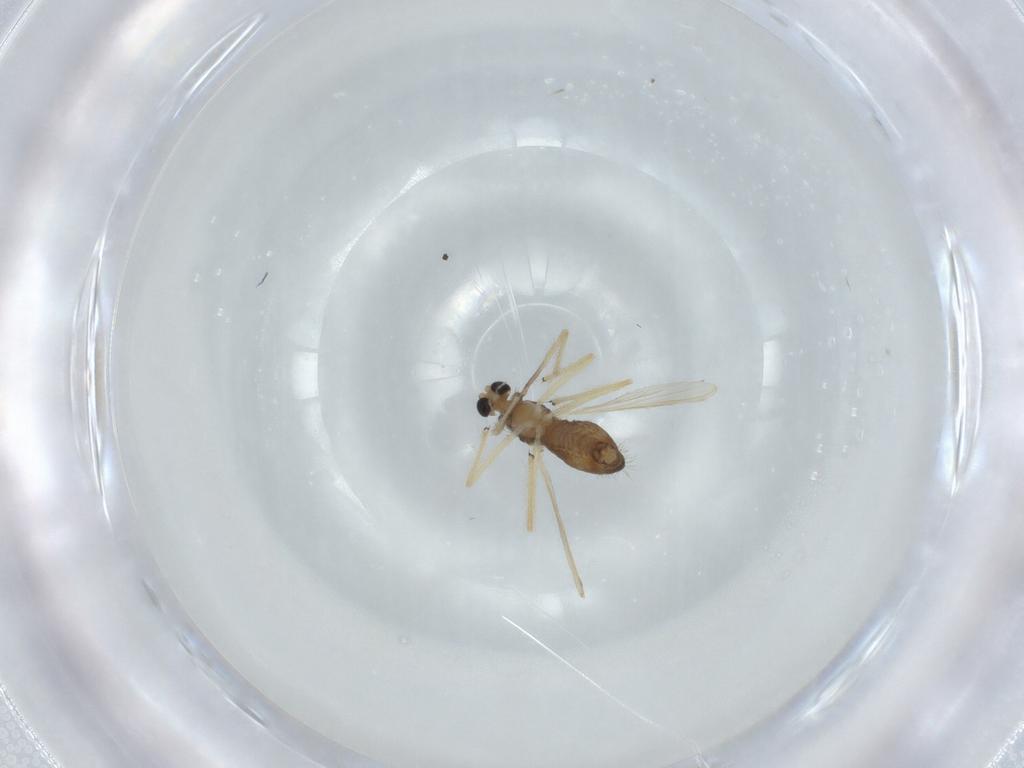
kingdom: Animalia
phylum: Arthropoda
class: Insecta
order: Diptera
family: Chironomidae
